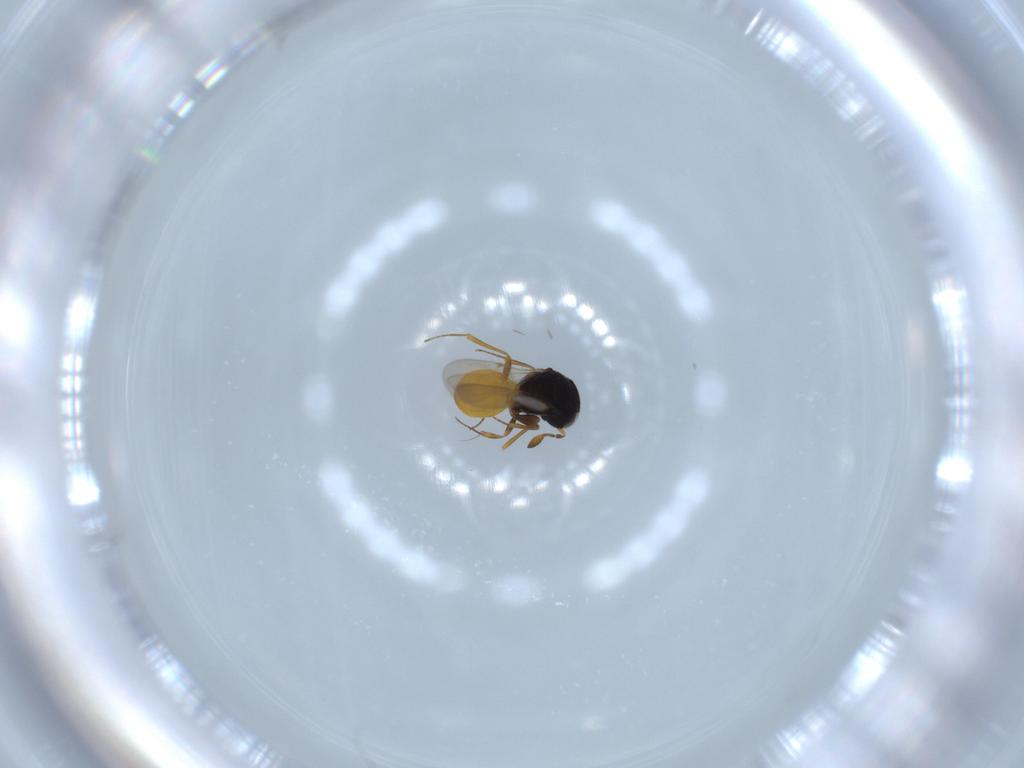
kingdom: Animalia
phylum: Arthropoda
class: Insecta
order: Hymenoptera
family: Scelionidae
